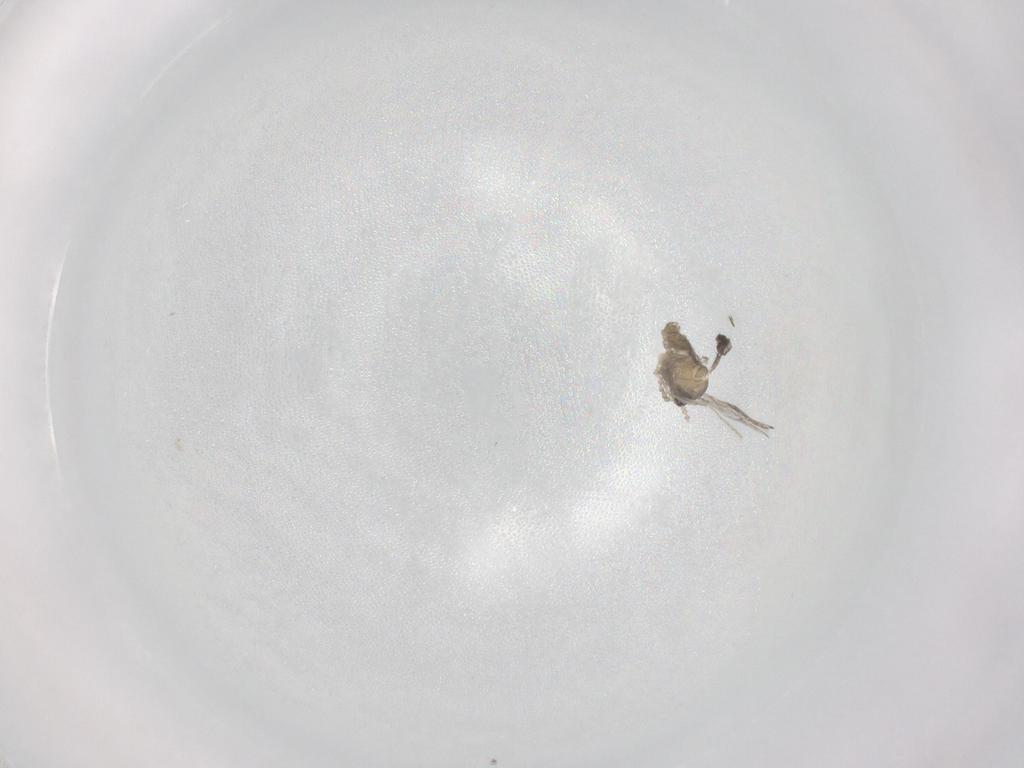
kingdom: Animalia
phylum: Arthropoda
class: Insecta
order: Diptera
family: Cecidomyiidae
